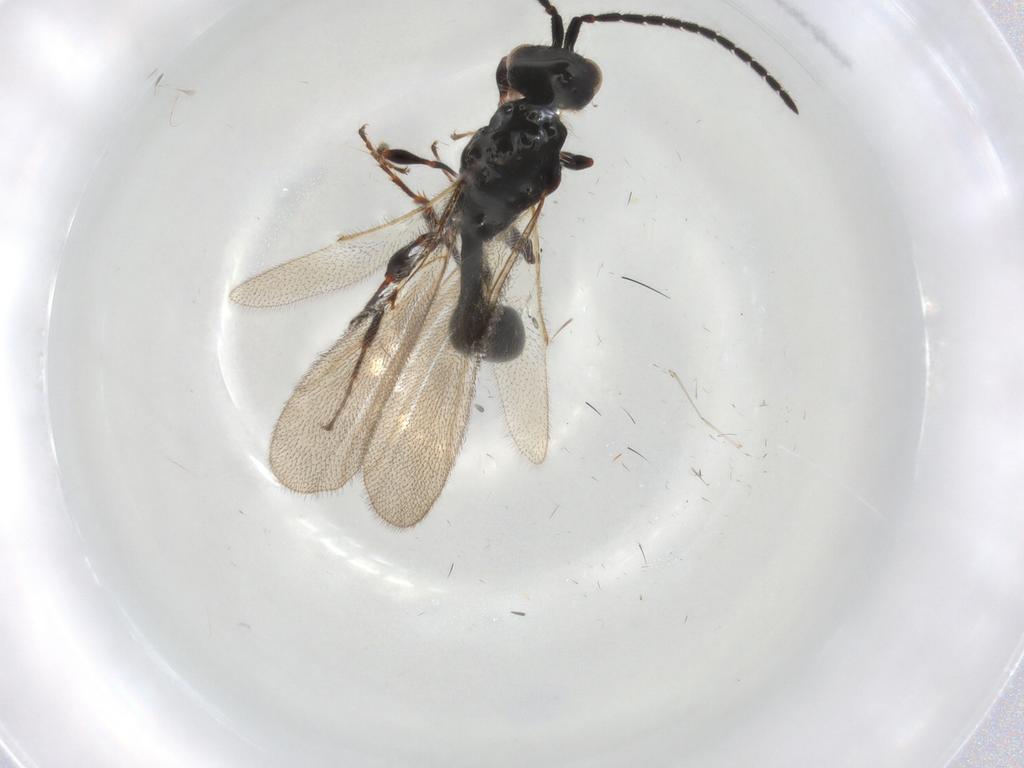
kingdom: Animalia
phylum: Arthropoda
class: Insecta
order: Hymenoptera
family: Diapriidae
